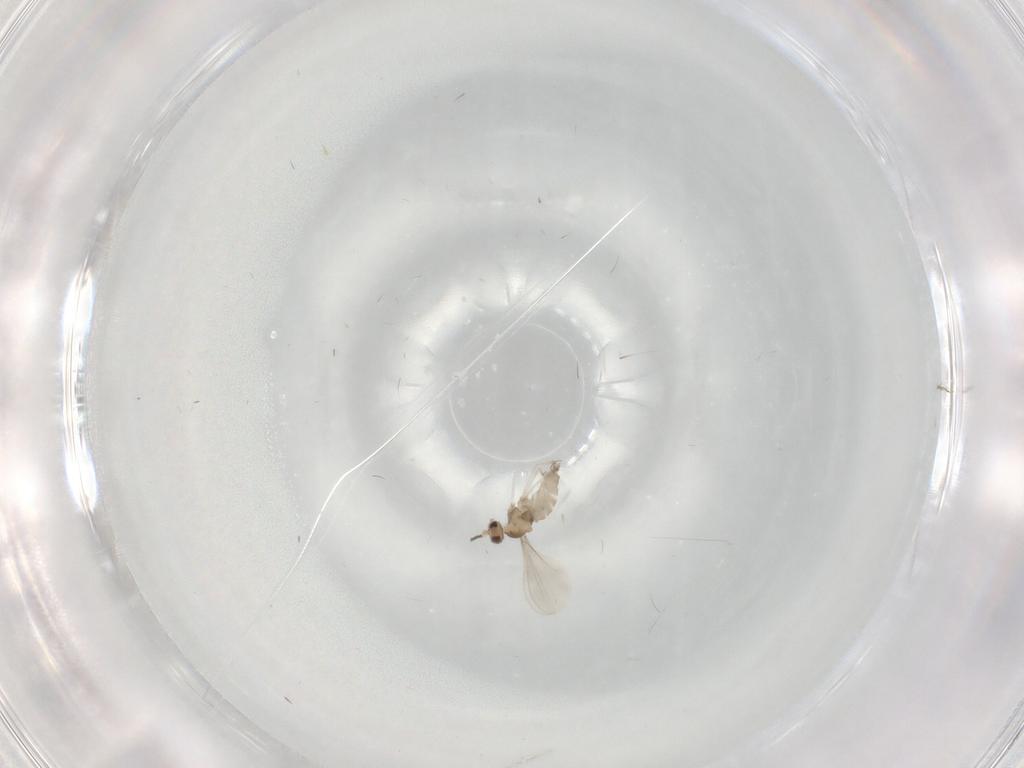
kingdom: Animalia
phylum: Arthropoda
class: Insecta
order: Diptera
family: Cecidomyiidae
